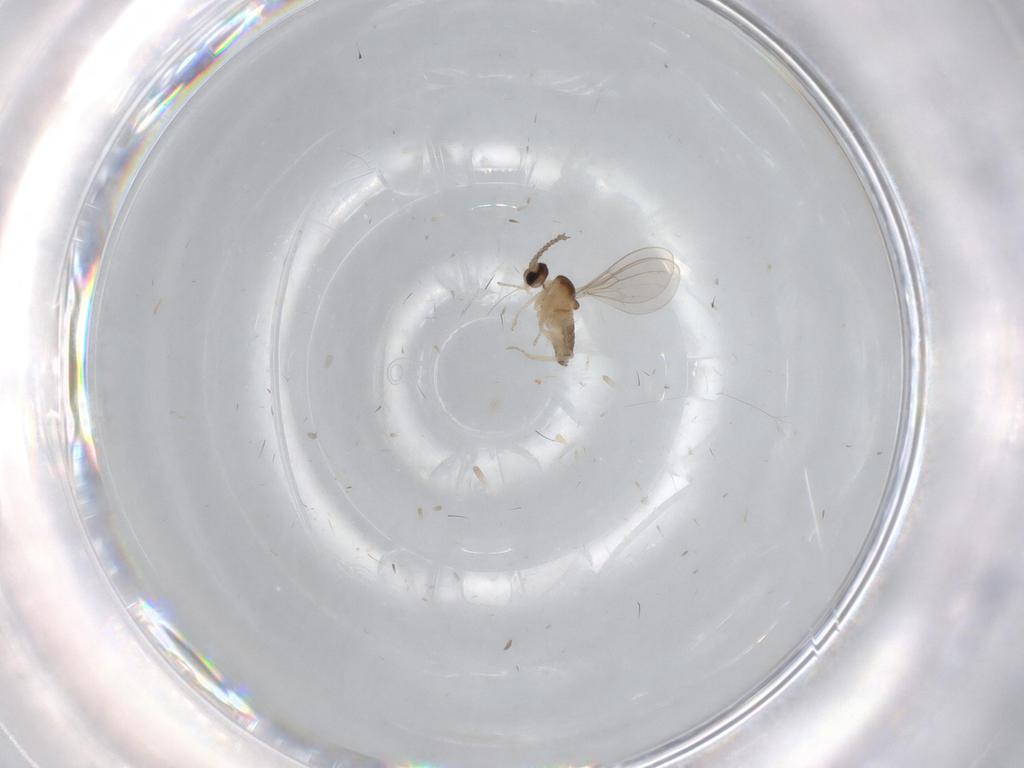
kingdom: Animalia
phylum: Arthropoda
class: Insecta
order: Diptera
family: Cecidomyiidae
